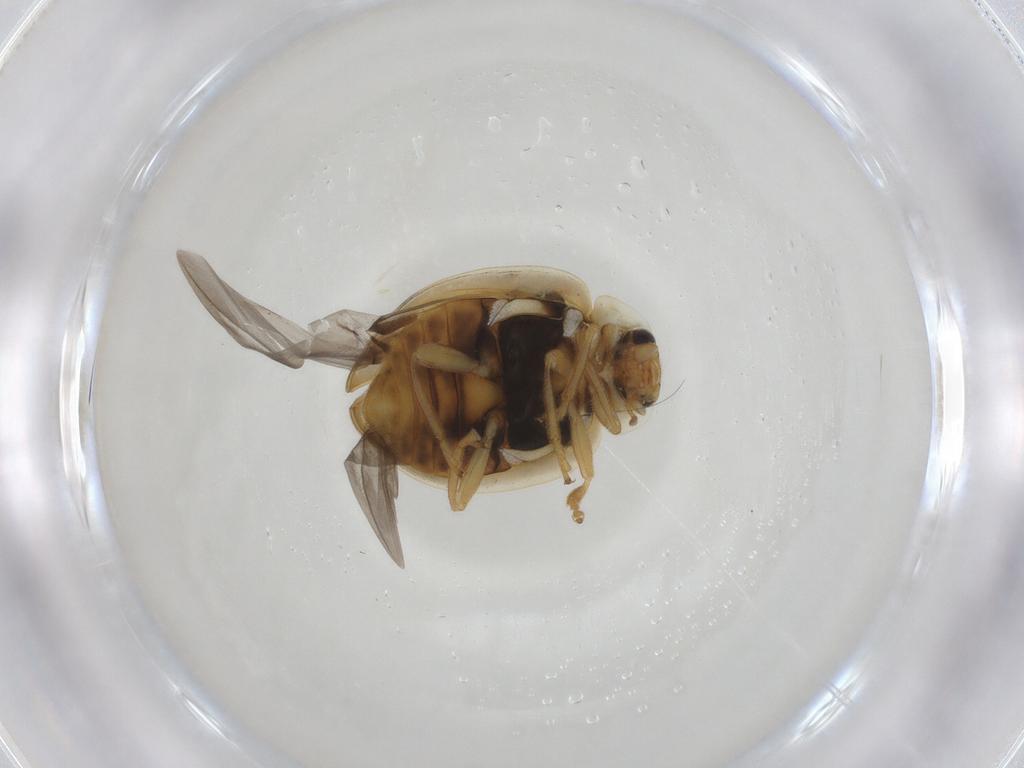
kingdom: Animalia
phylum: Arthropoda
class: Insecta
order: Coleoptera
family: Coccinellidae
